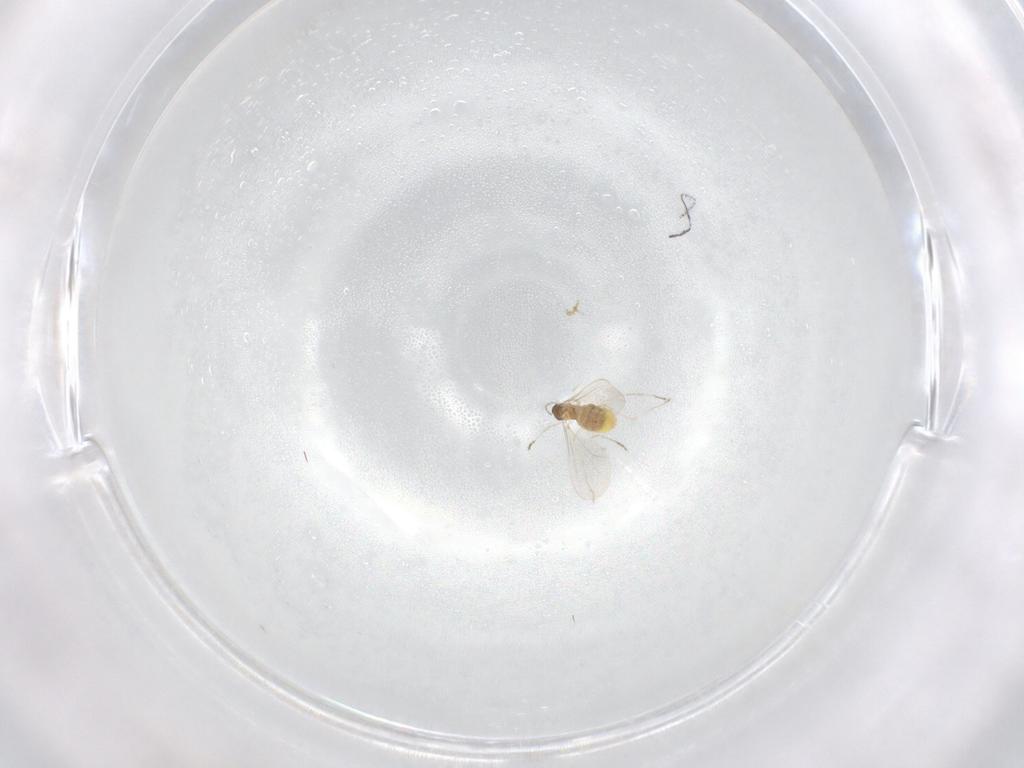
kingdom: Animalia
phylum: Arthropoda
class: Insecta
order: Diptera
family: Cecidomyiidae
